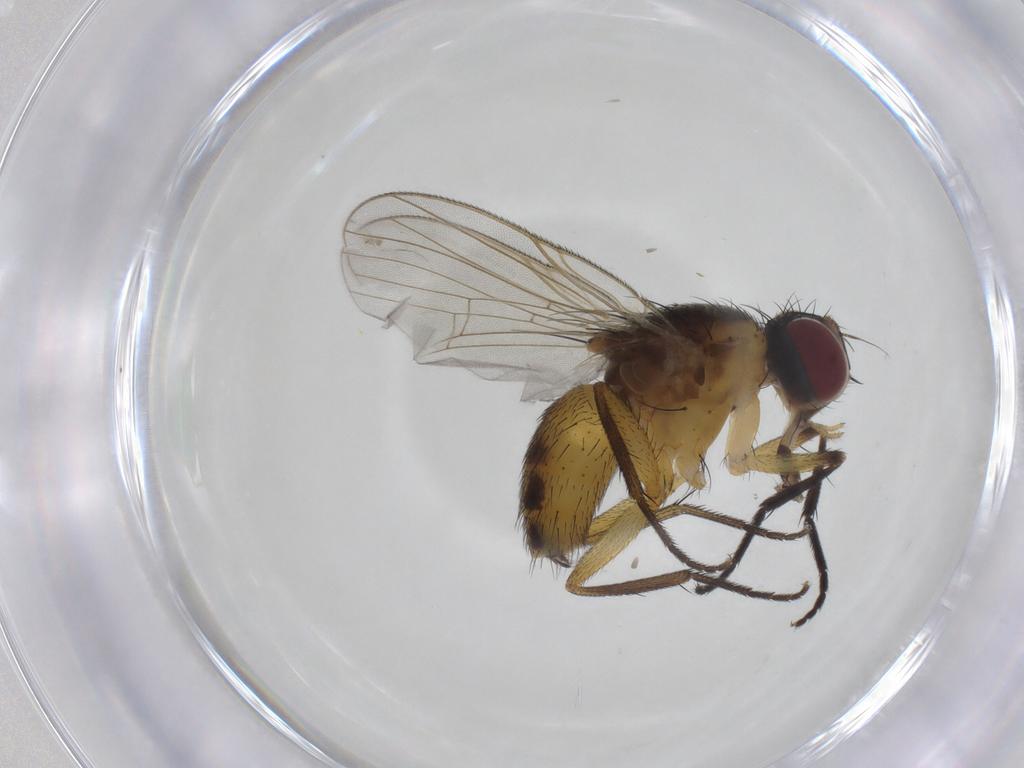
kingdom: Animalia
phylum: Arthropoda
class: Insecta
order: Diptera
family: Muscidae
